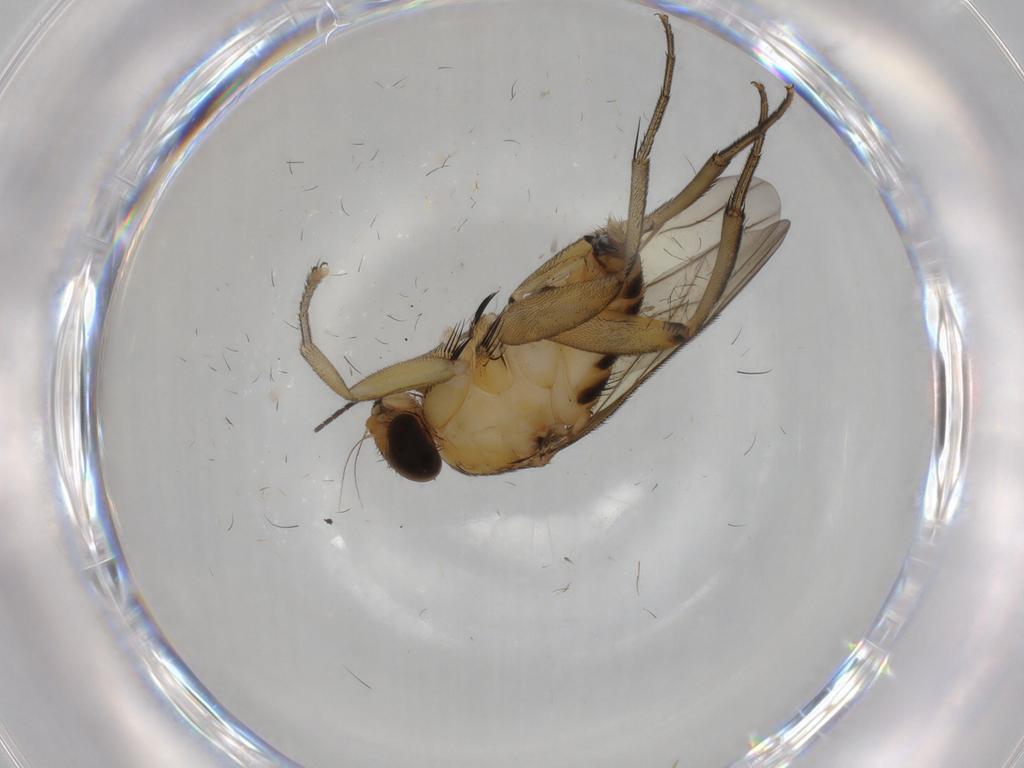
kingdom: Animalia
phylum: Arthropoda
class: Insecta
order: Diptera
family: Phoridae
